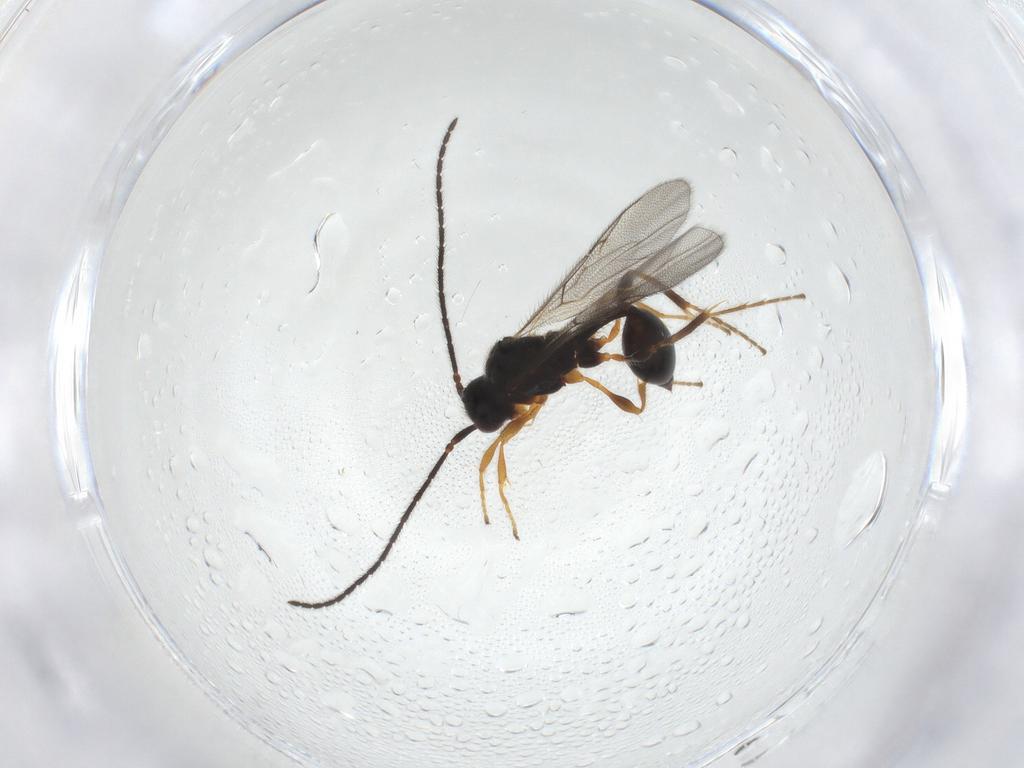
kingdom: Animalia
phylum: Arthropoda
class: Insecta
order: Hymenoptera
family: Diapriidae
